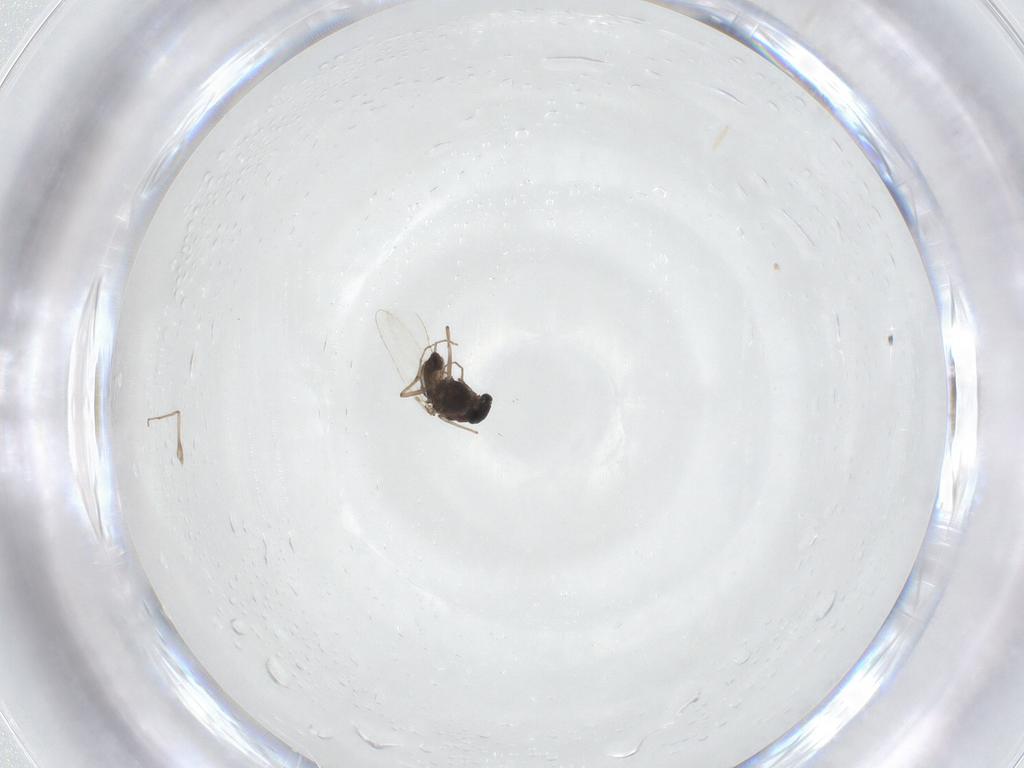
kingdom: Animalia
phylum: Arthropoda
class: Insecta
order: Diptera
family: Chironomidae
